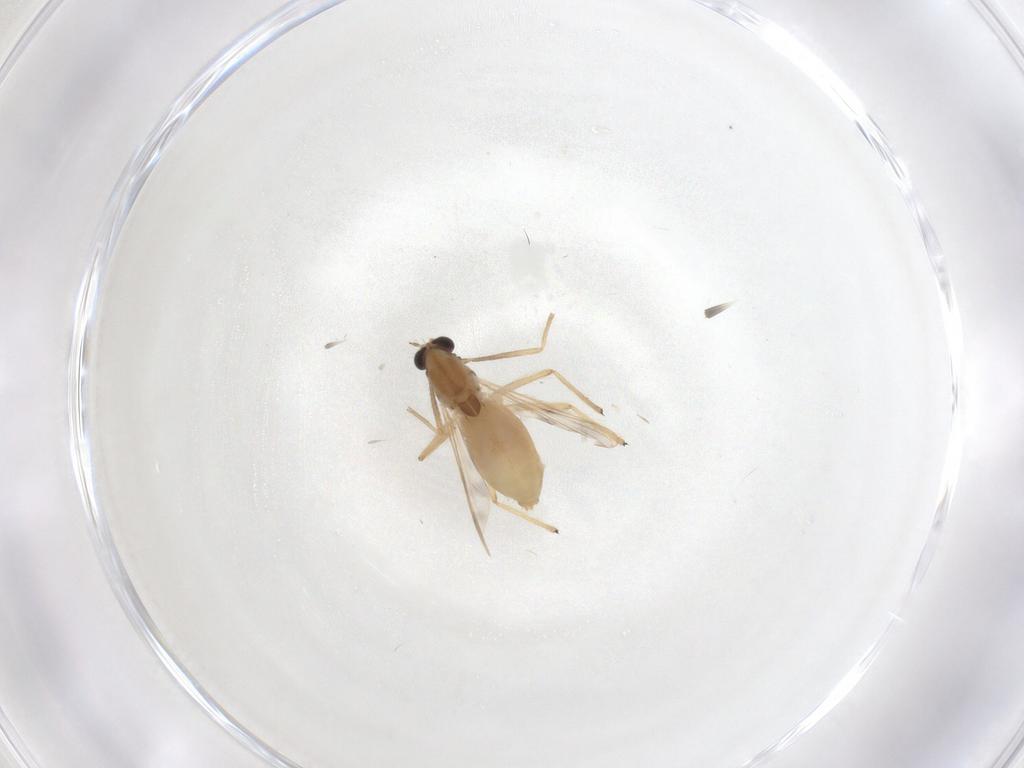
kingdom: Animalia
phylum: Arthropoda
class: Insecta
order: Diptera
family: Chironomidae
